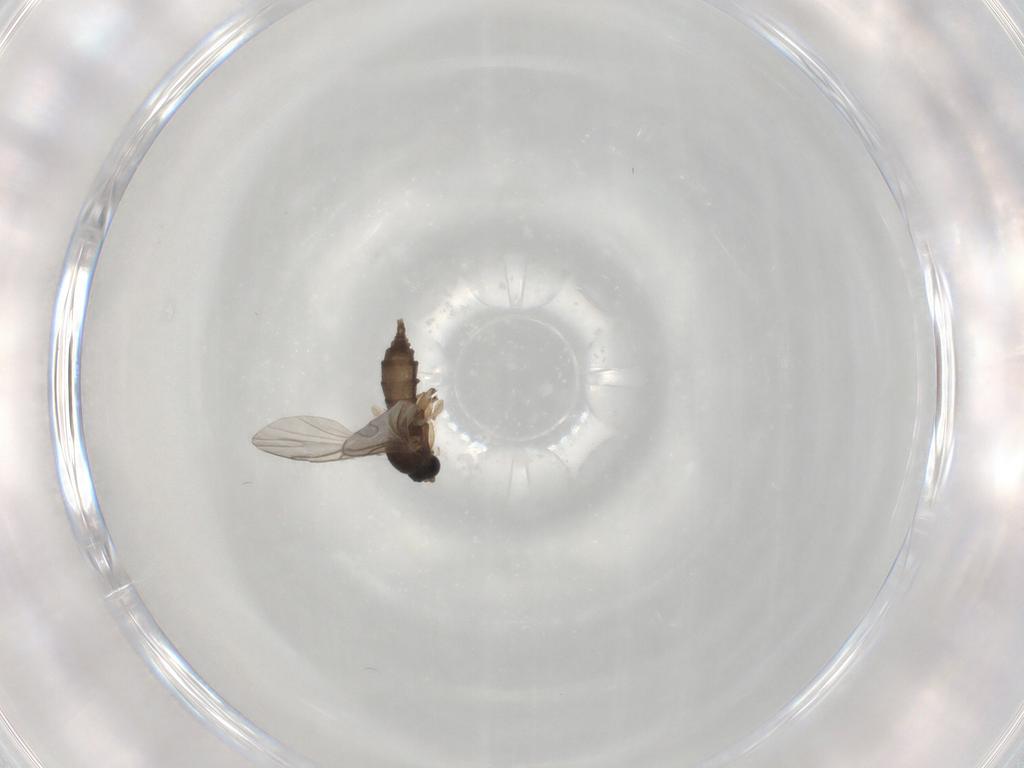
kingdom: Animalia
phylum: Arthropoda
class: Insecta
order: Diptera
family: Sciaridae
